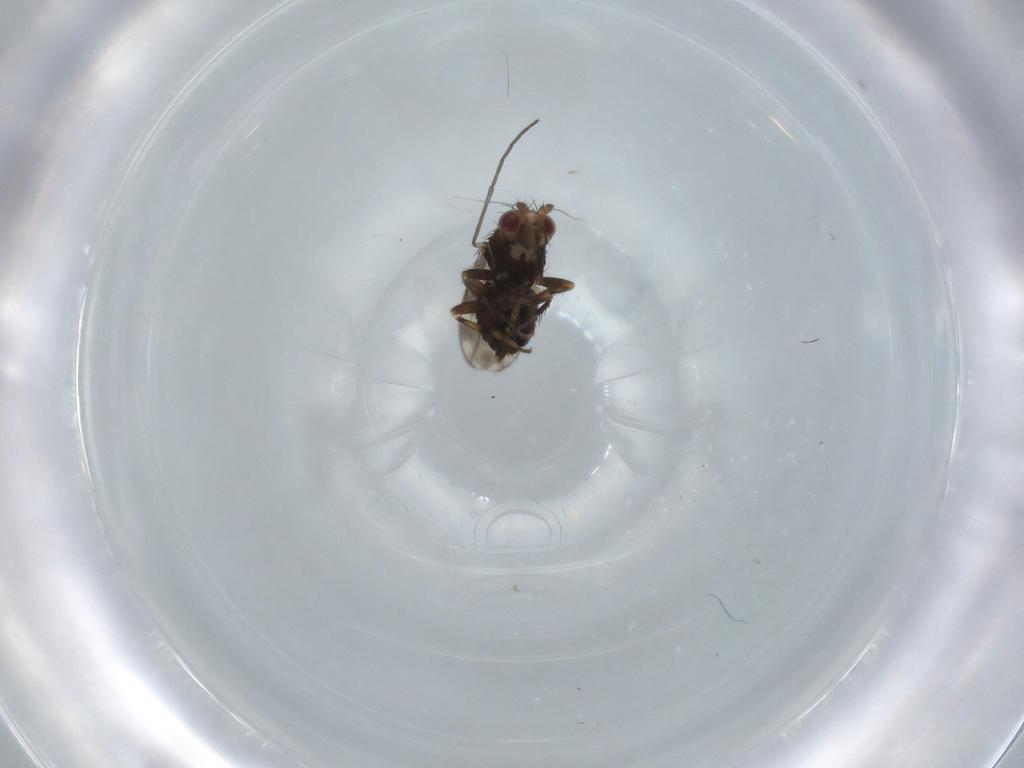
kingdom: Animalia
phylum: Arthropoda
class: Insecta
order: Diptera
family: Sphaeroceridae
